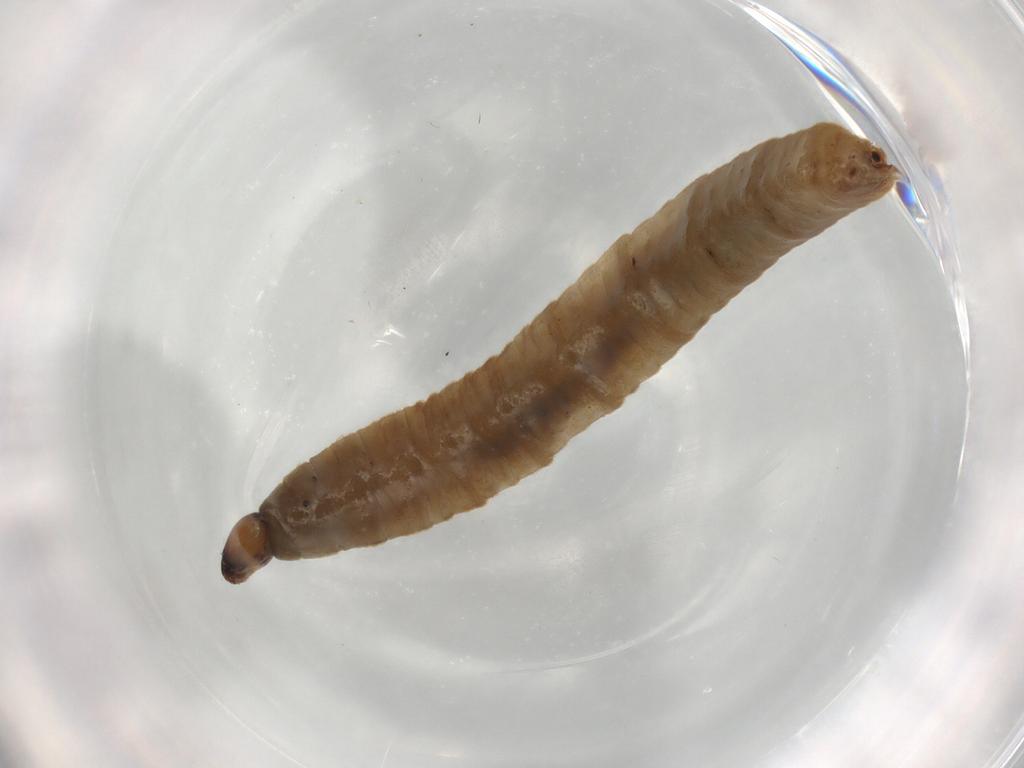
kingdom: Animalia
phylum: Arthropoda
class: Insecta
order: Diptera
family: Trichoceridae
